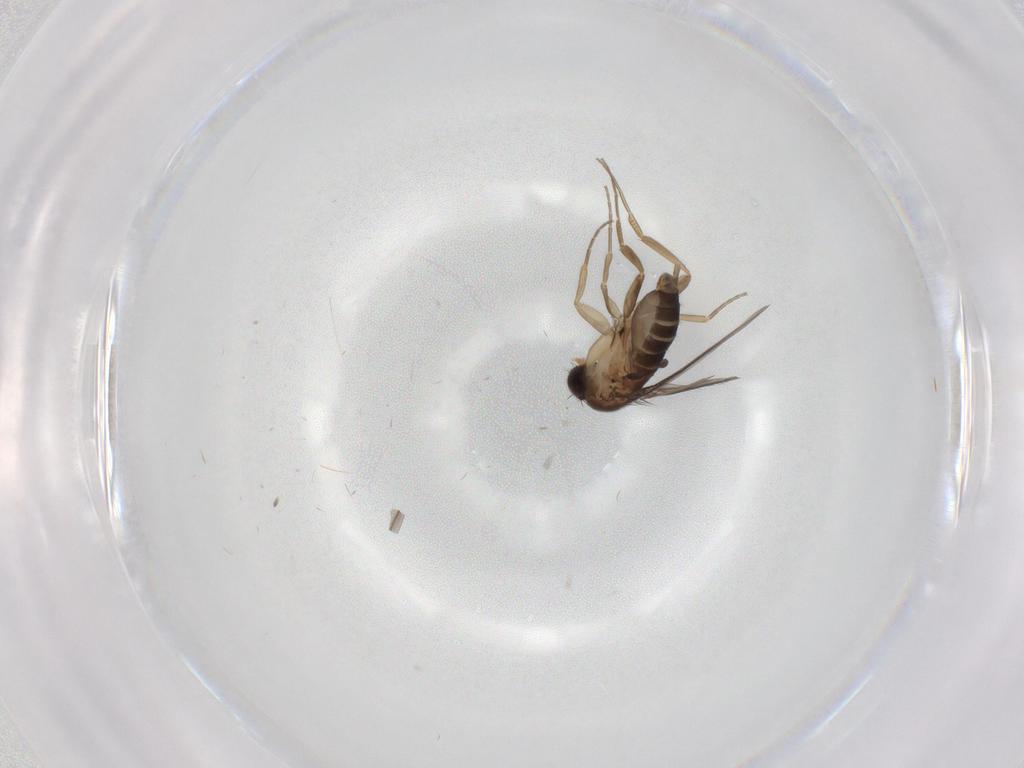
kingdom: Animalia
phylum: Arthropoda
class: Insecta
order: Diptera
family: Phoridae
